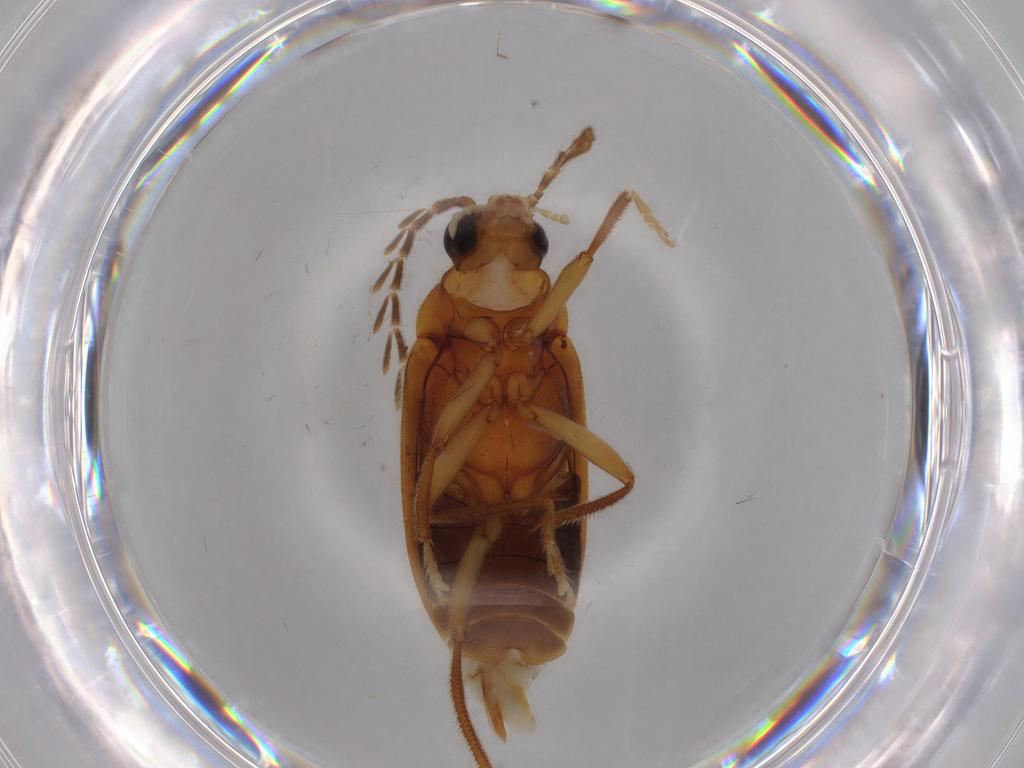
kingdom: Animalia
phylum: Arthropoda
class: Insecta
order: Coleoptera
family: Ptilodactylidae
